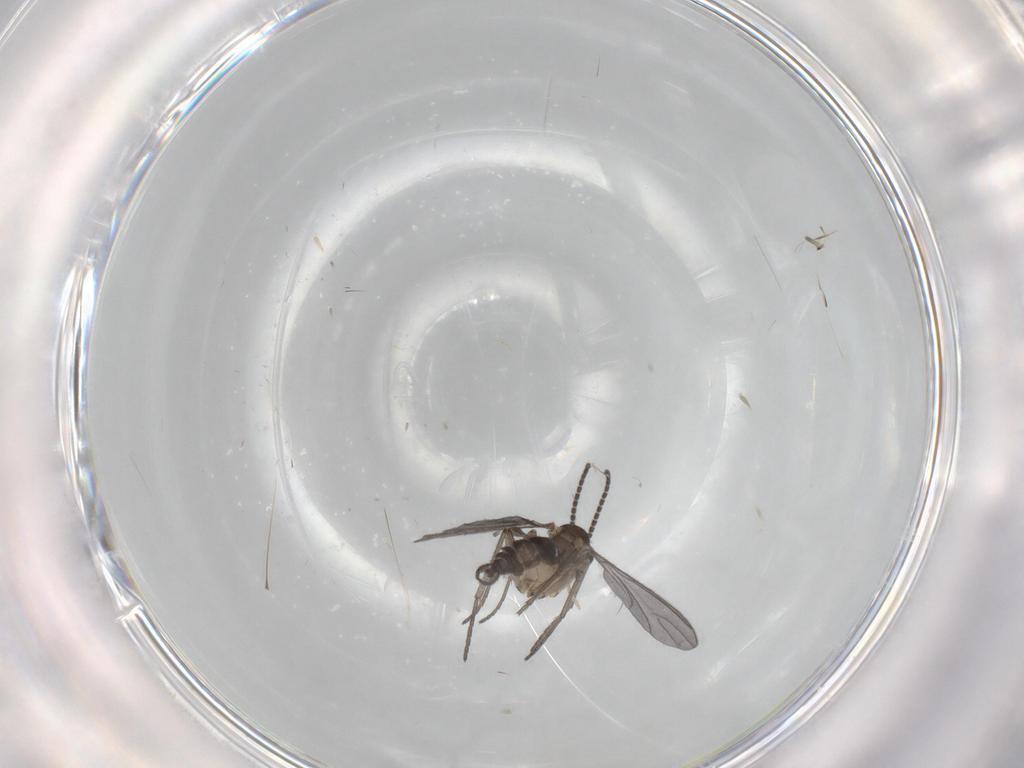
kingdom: Animalia
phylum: Arthropoda
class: Insecta
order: Diptera
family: Sciaridae
